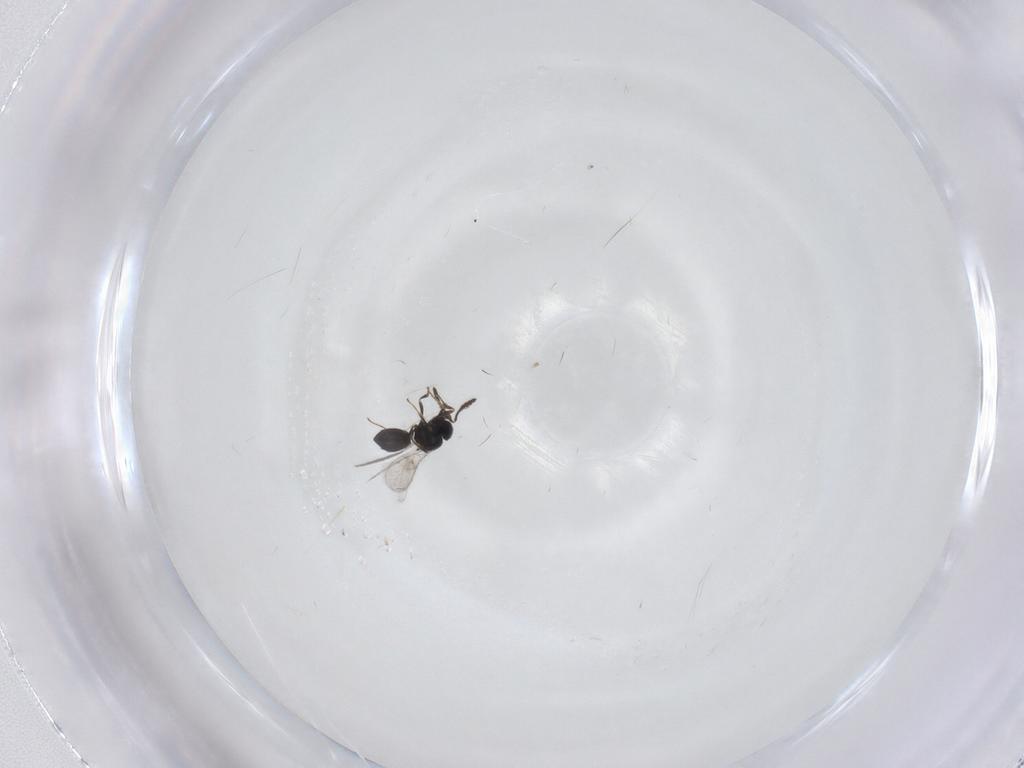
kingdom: Animalia
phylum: Arthropoda
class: Insecta
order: Hymenoptera
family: Scelionidae
